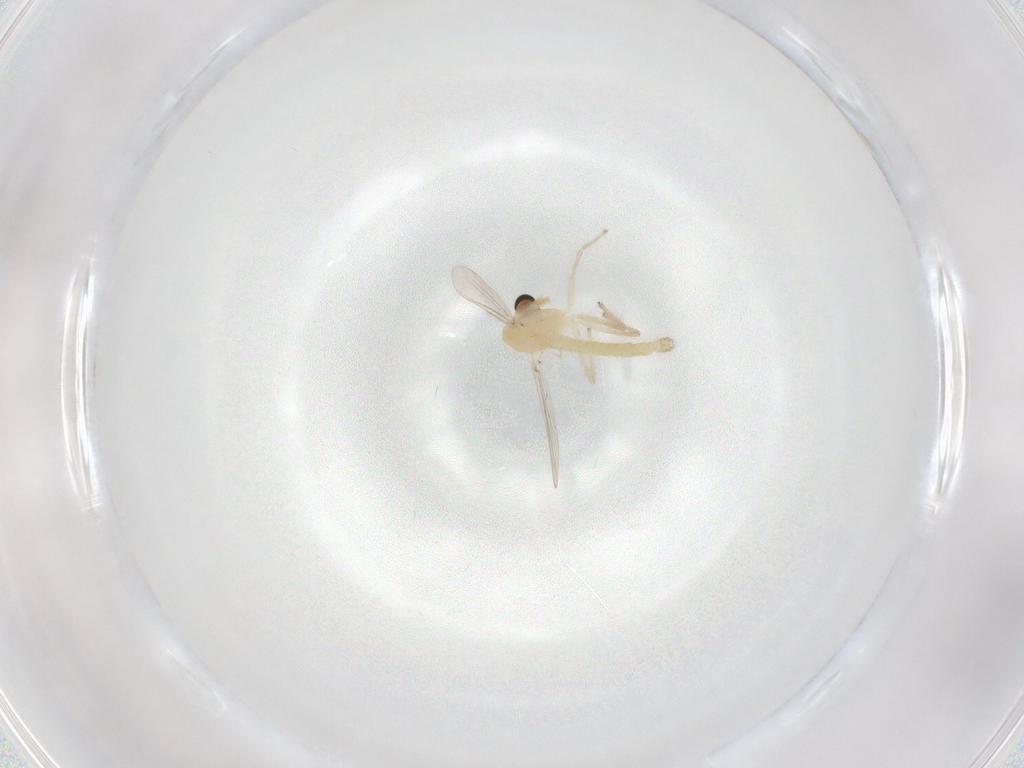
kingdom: Animalia
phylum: Arthropoda
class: Insecta
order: Diptera
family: Chironomidae
